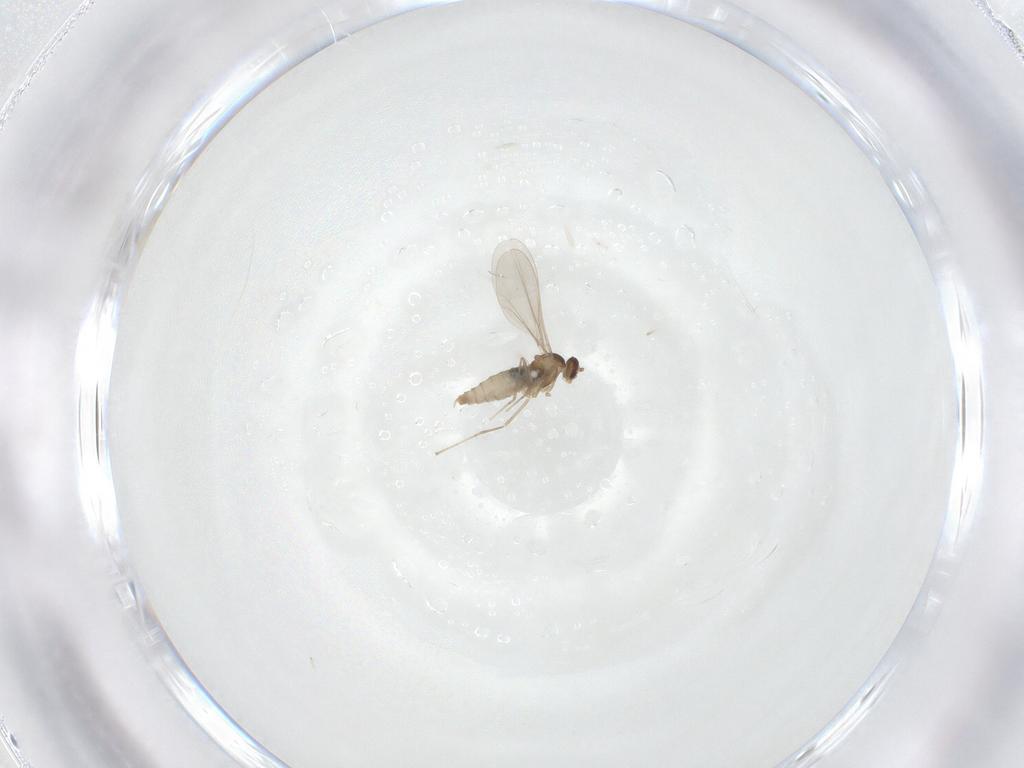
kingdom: Animalia
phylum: Arthropoda
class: Insecta
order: Diptera
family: Cecidomyiidae
